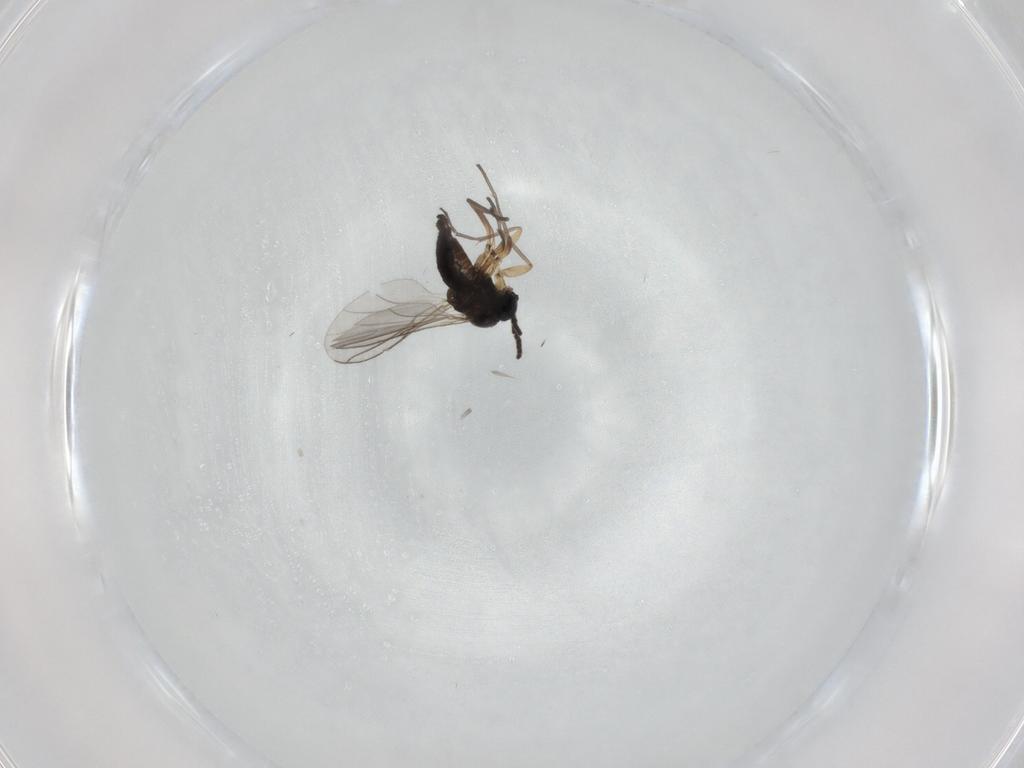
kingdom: Animalia
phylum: Arthropoda
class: Insecta
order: Diptera
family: Sciaridae
